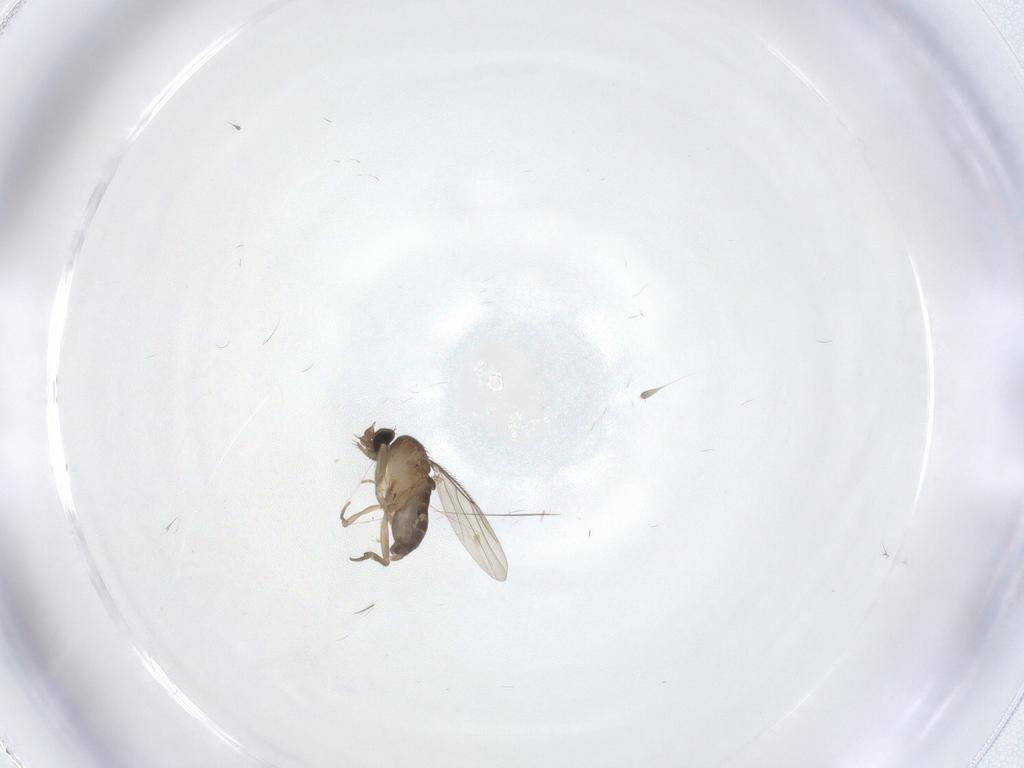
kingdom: Animalia
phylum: Arthropoda
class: Insecta
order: Diptera
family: Phoridae
